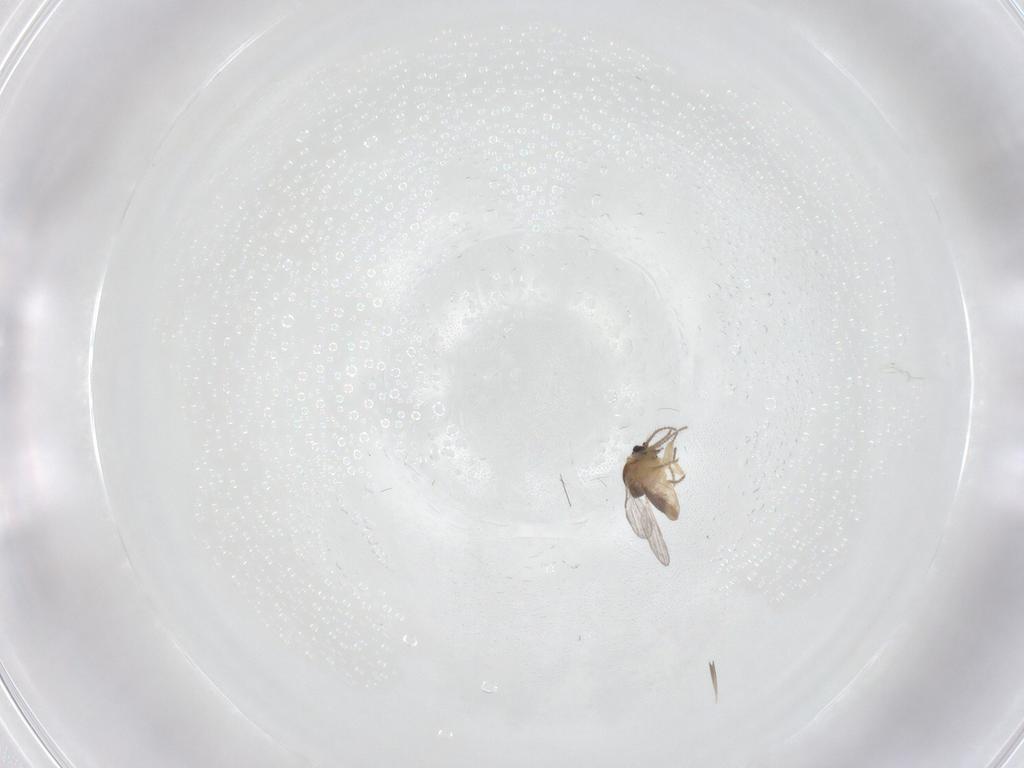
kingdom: Animalia
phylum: Arthropoda
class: Insecta
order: Diptera
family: Ceratopogonidae
